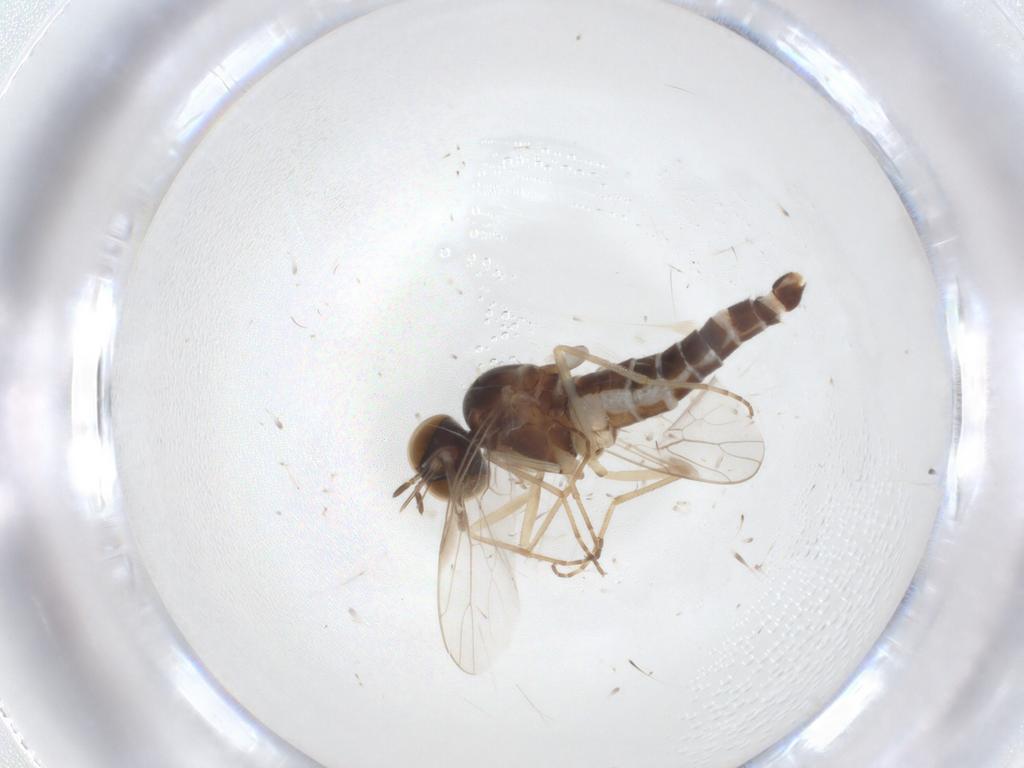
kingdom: Animalia
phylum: Arthropoda
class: Insecta
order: Diptera
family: Scenopinidae
